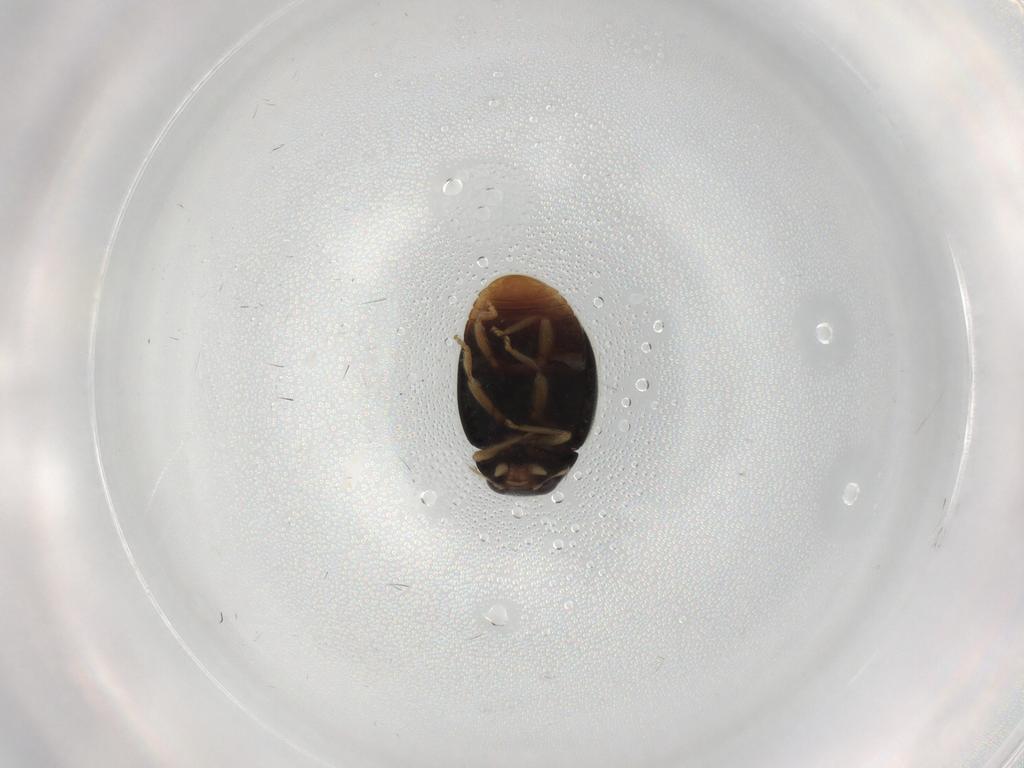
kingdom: Animalia
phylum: Arthropoda
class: Insecta
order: Coleoptera
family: Coccinellidae
